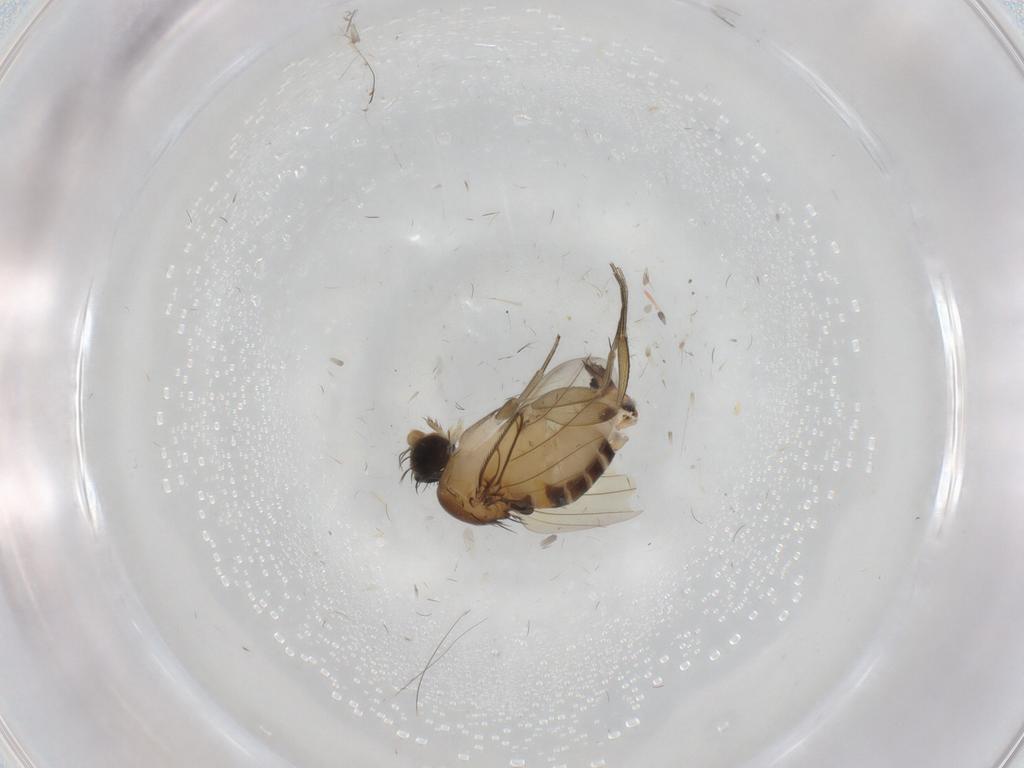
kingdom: Animalia
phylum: Arthropoda
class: Insecta
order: Diptera
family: Phoridae
